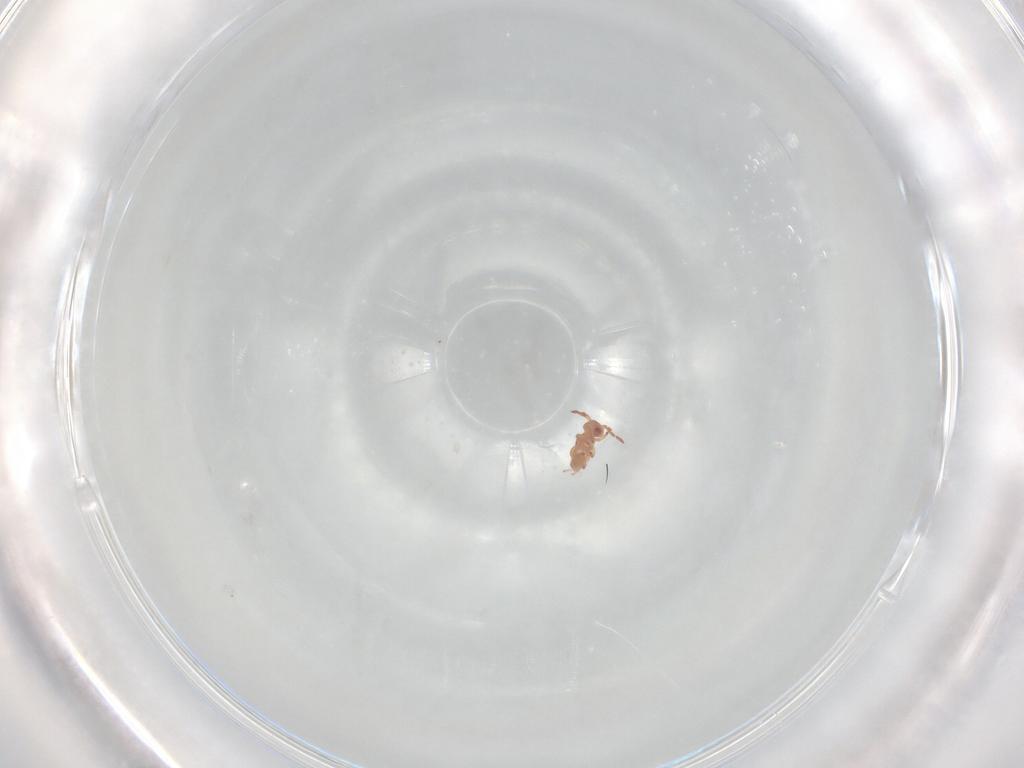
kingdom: Animalia
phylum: Arthropoda
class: Collembola
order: Symphypleona
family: Sminthurididae
